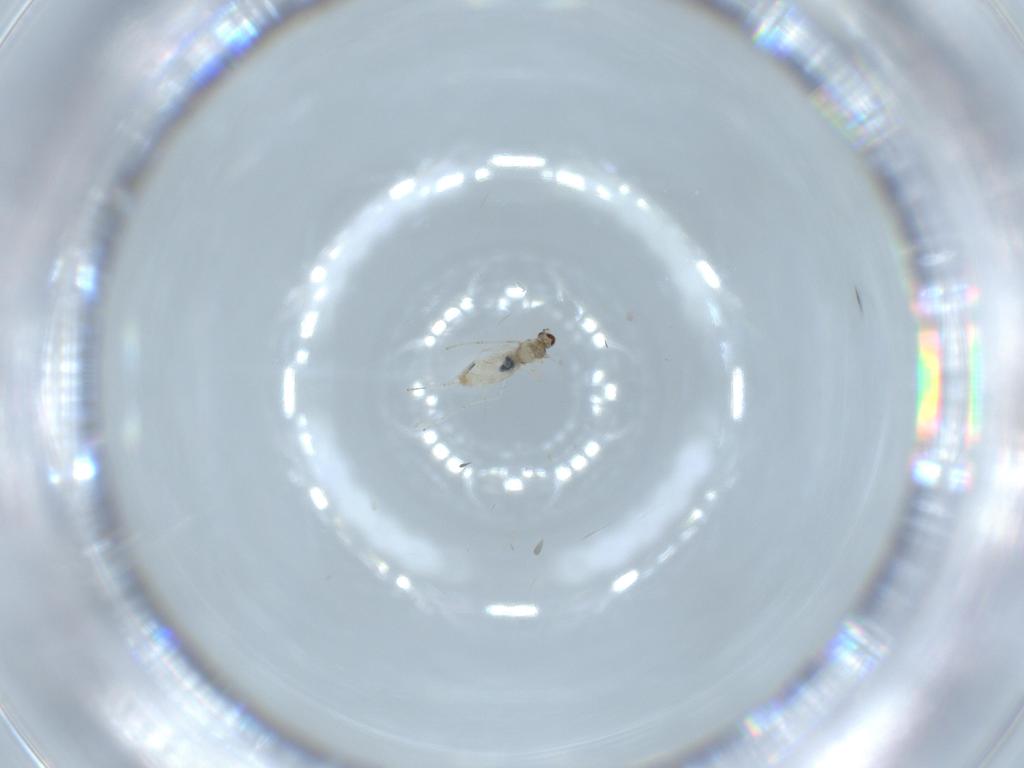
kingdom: Animalia
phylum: Arthropoda
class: Insecta
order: Diptera
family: Cecidomyiidae
